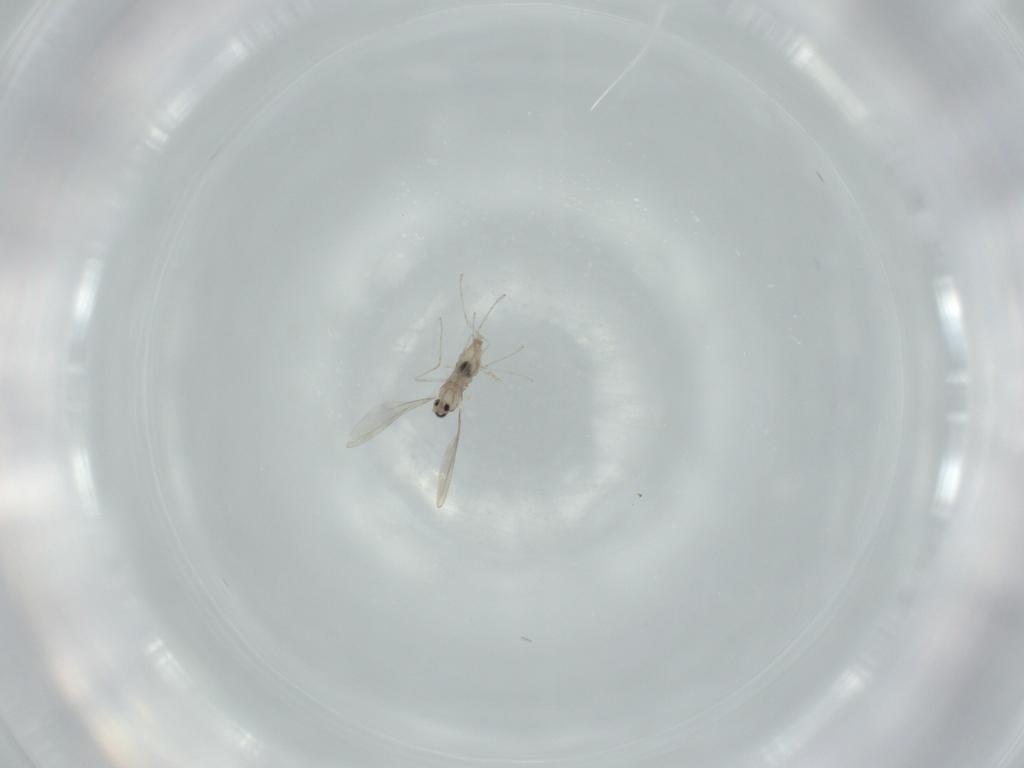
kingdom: Animalia
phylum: Arthropoda
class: Insecta
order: Diptera
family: Cecidomyiidae
